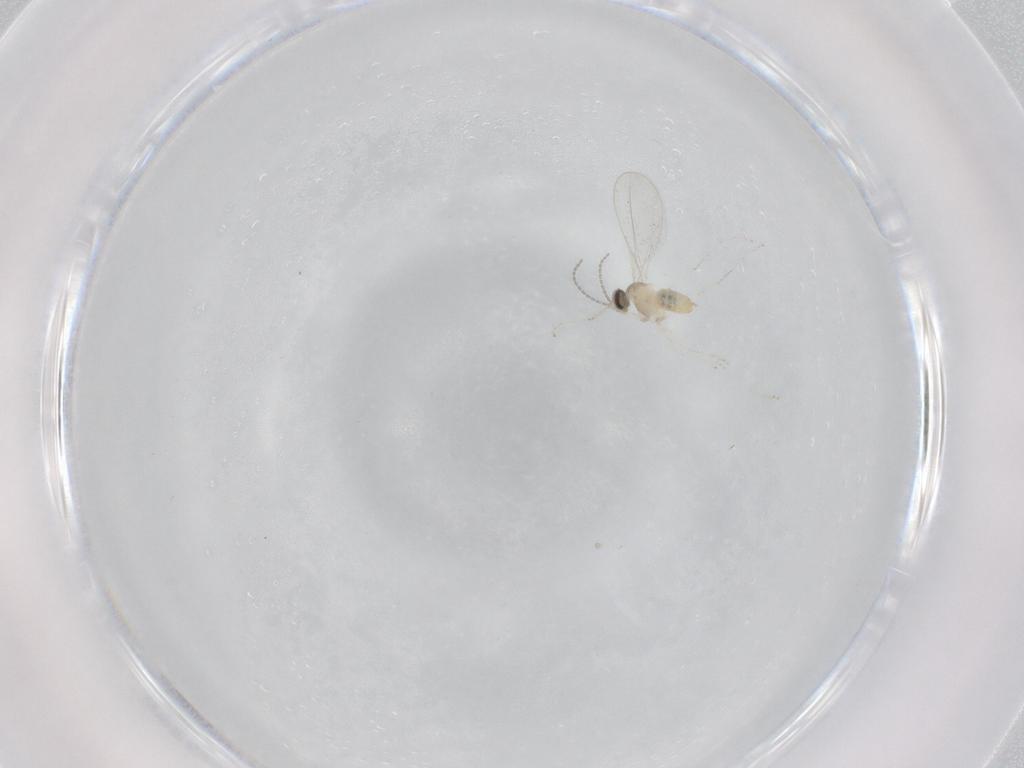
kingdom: Animalia
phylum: Arthropoda
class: Insecta
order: Diptera
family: Cecidomyiidae
